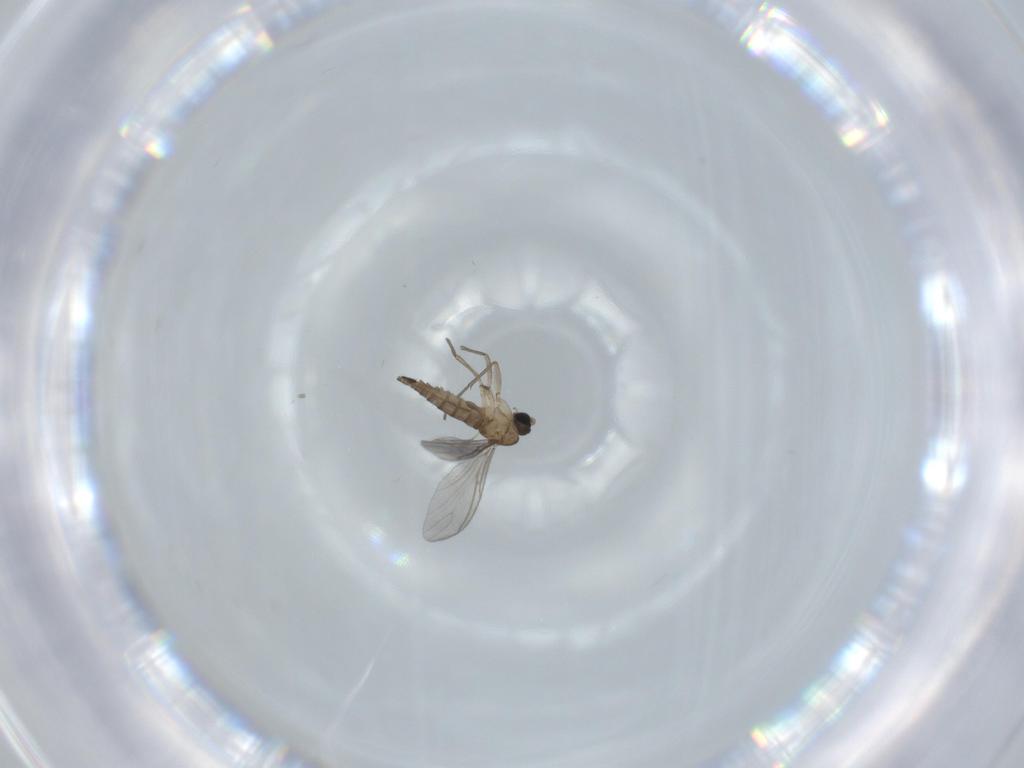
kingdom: Animalia
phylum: Arthropoda
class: Insecta
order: Diptera
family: Sciaridae
